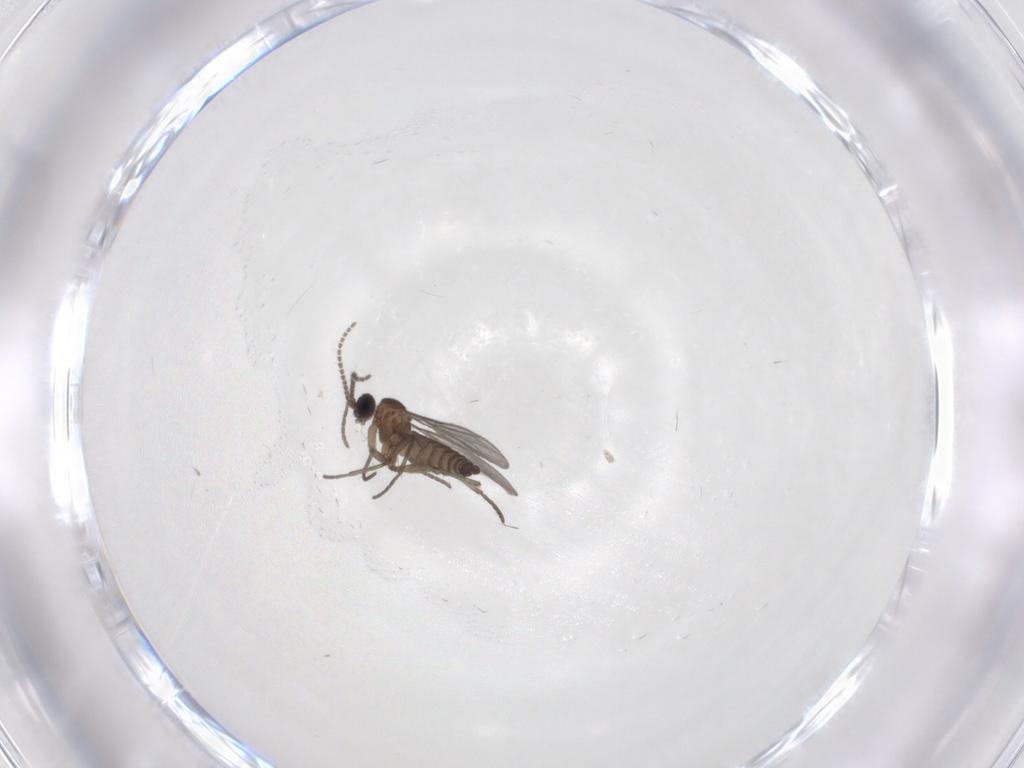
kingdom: Animalia
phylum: Arthropoda
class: Insecta
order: Diptera
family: Sciaridae
